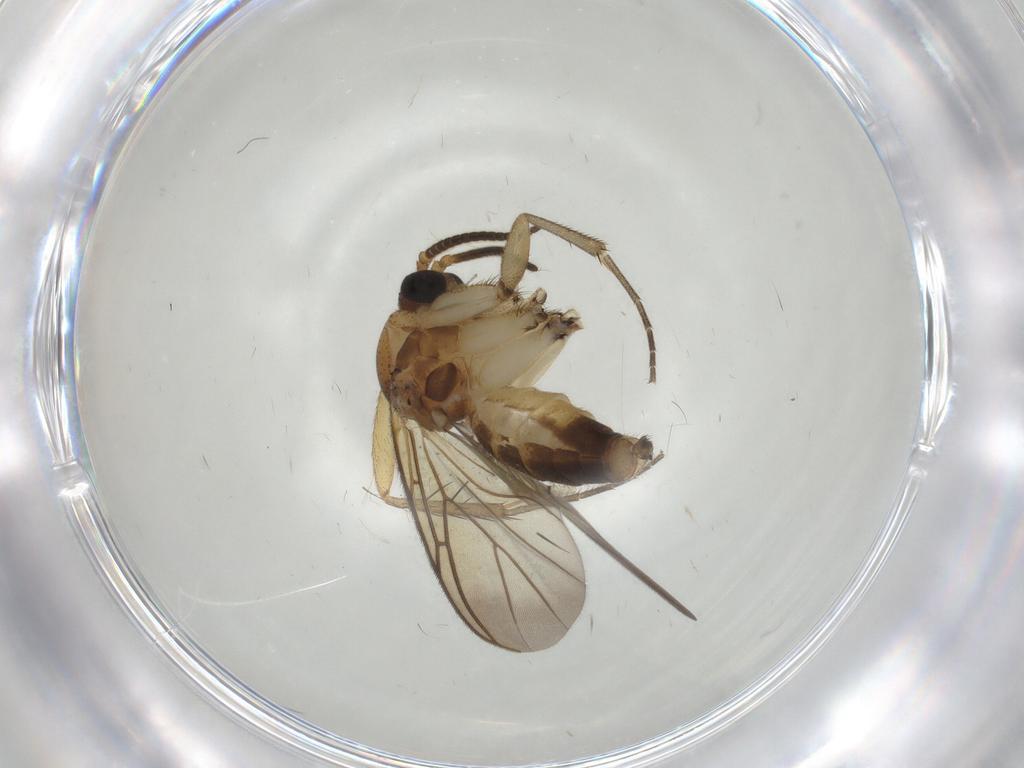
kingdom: Animalia
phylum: Arthropoda
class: Insecta
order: Diptera
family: Mycetophilidae
